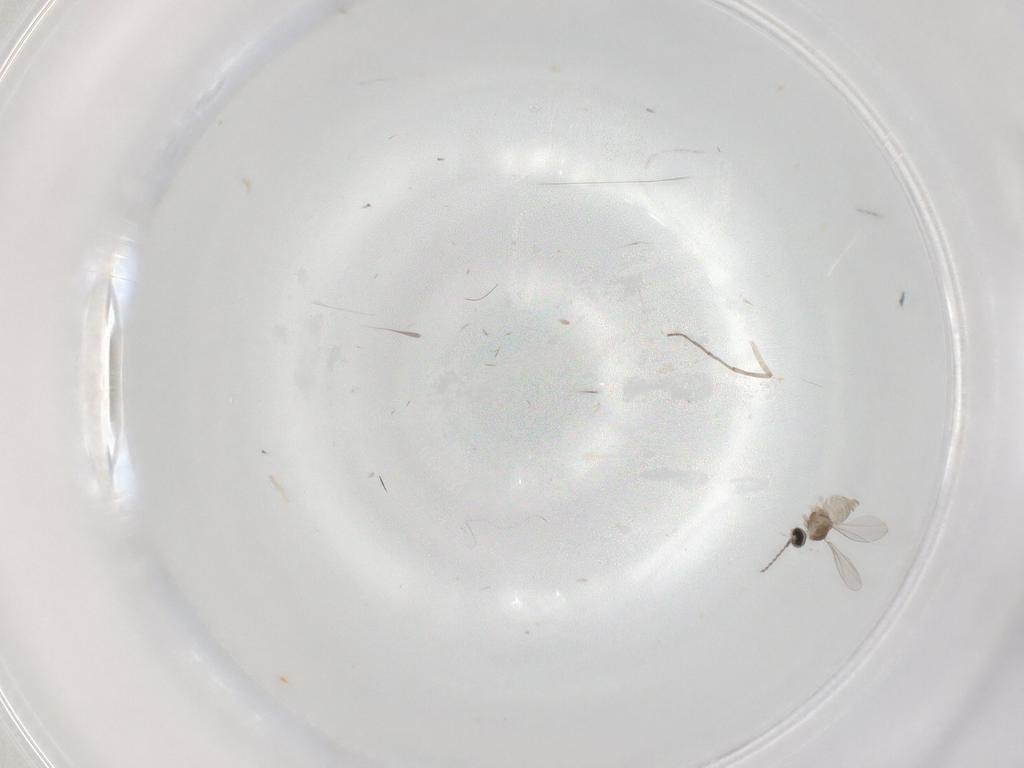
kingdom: Animalia
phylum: Arthropoda
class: Insecta
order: Diptera
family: Chironomidae
